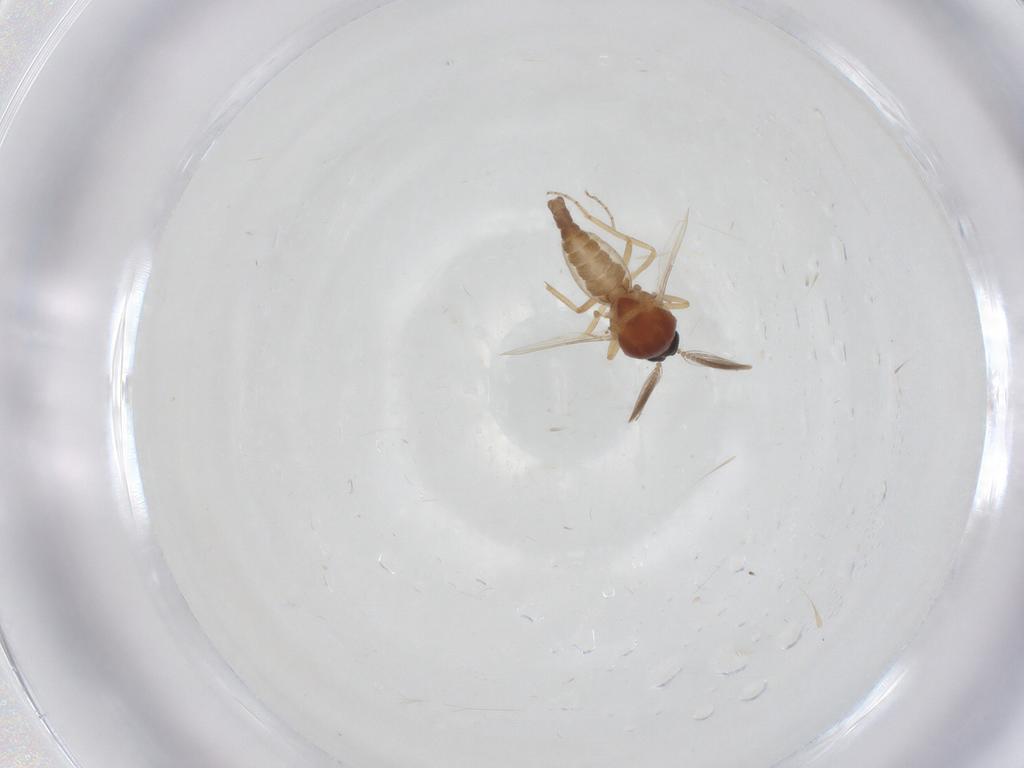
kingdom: Animalia
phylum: Arthropoda
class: Insecta
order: Diptera
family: Ceratopogonidae
